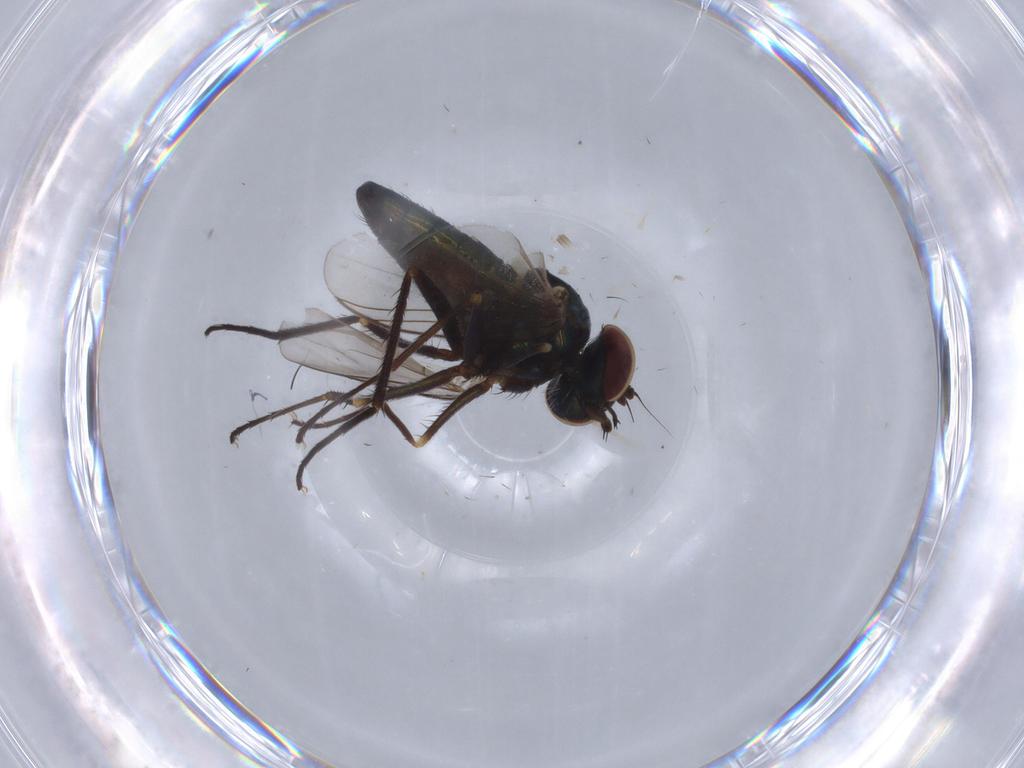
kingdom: Animalia
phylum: Arthropoda
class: Insecta
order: Diptera
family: Dolichopodidae
